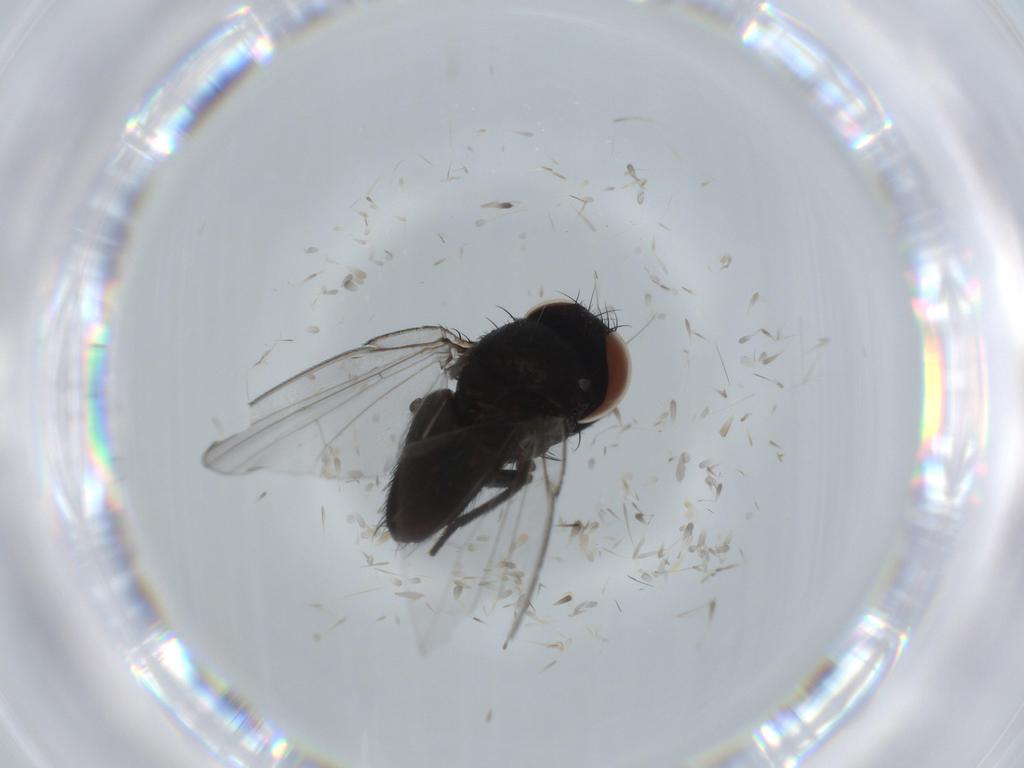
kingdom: Animalia
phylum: Arthropoda
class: Insecta
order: Diptera
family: Milichiidae
